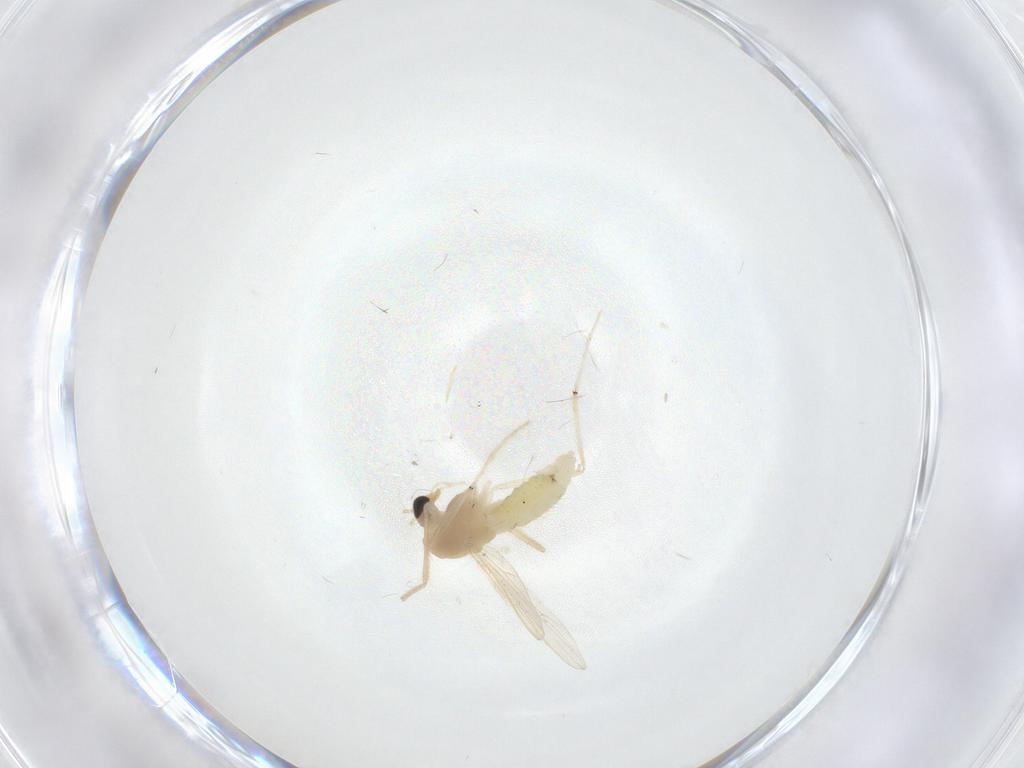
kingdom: Animalia
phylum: Arthropoda
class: Insecta
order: Diptera
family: Chironomidae
